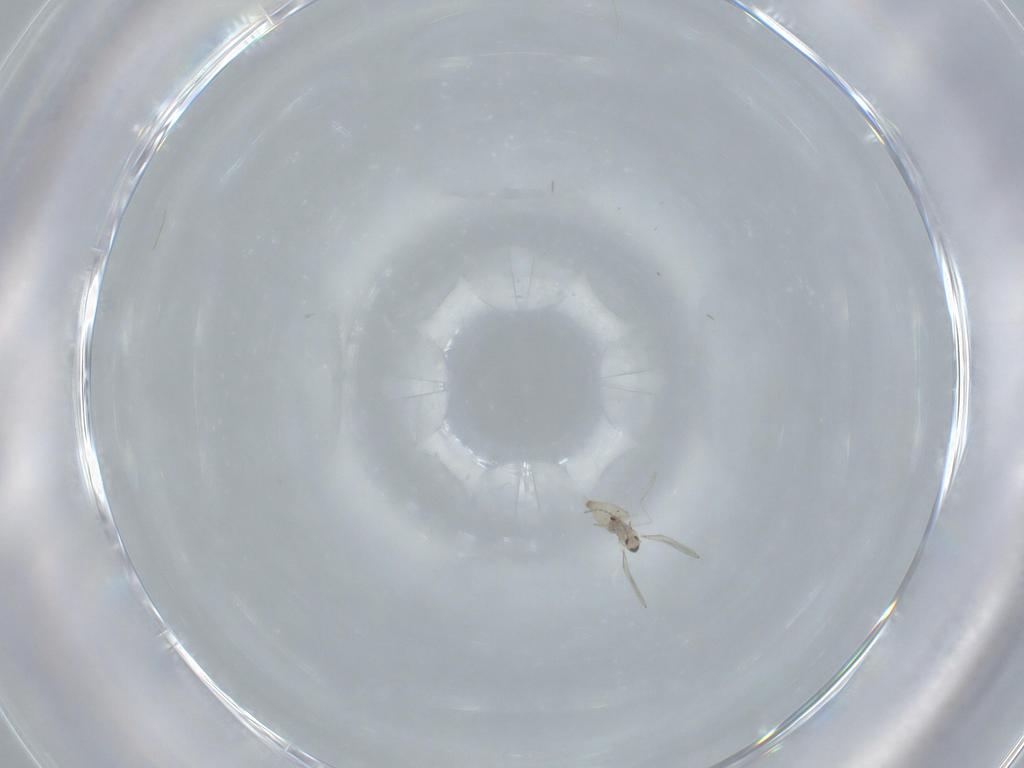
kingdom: Animalia
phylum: Arthropoda
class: Insecta
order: Diptera
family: Cecidomyiidae
